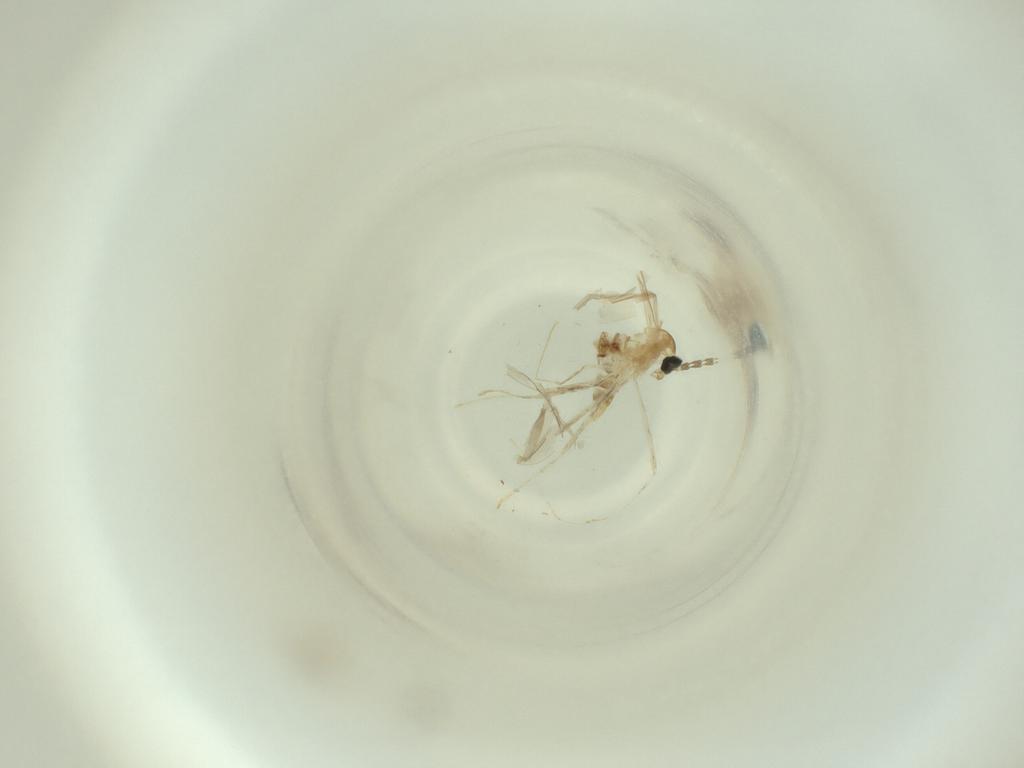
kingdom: Animalia
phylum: Arthropoda
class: Insecta
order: Diptera
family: Cecidomyiidae
